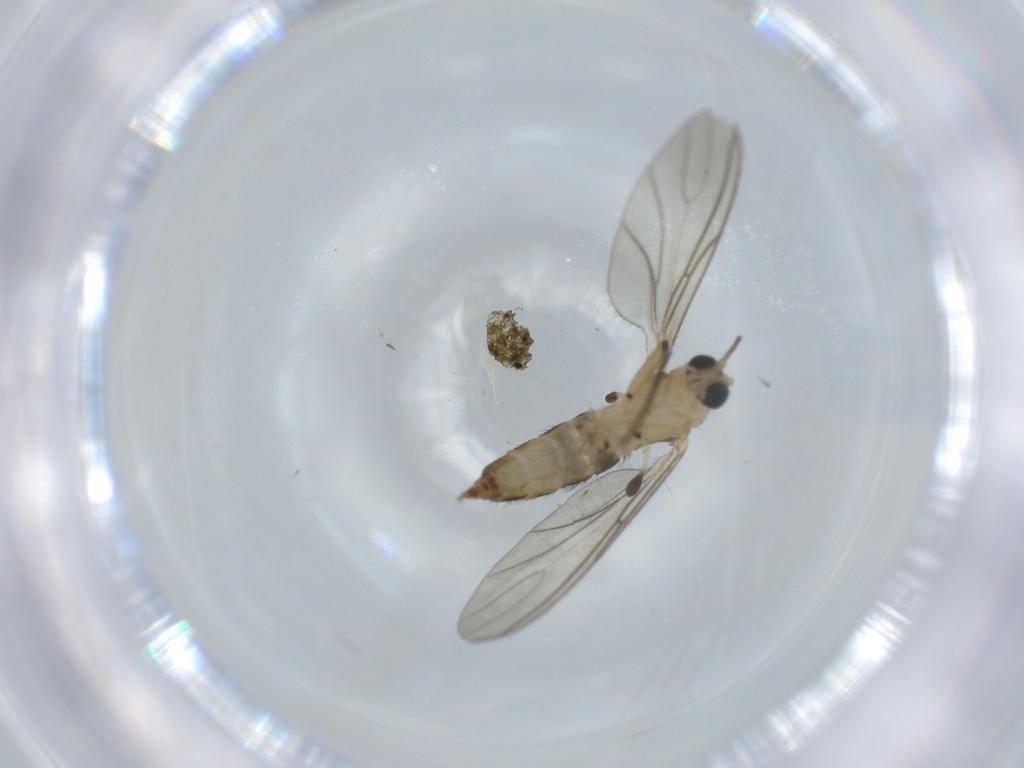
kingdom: Animalia
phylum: Arthropoda
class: Insecta
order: Diptera
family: Sciaridae
